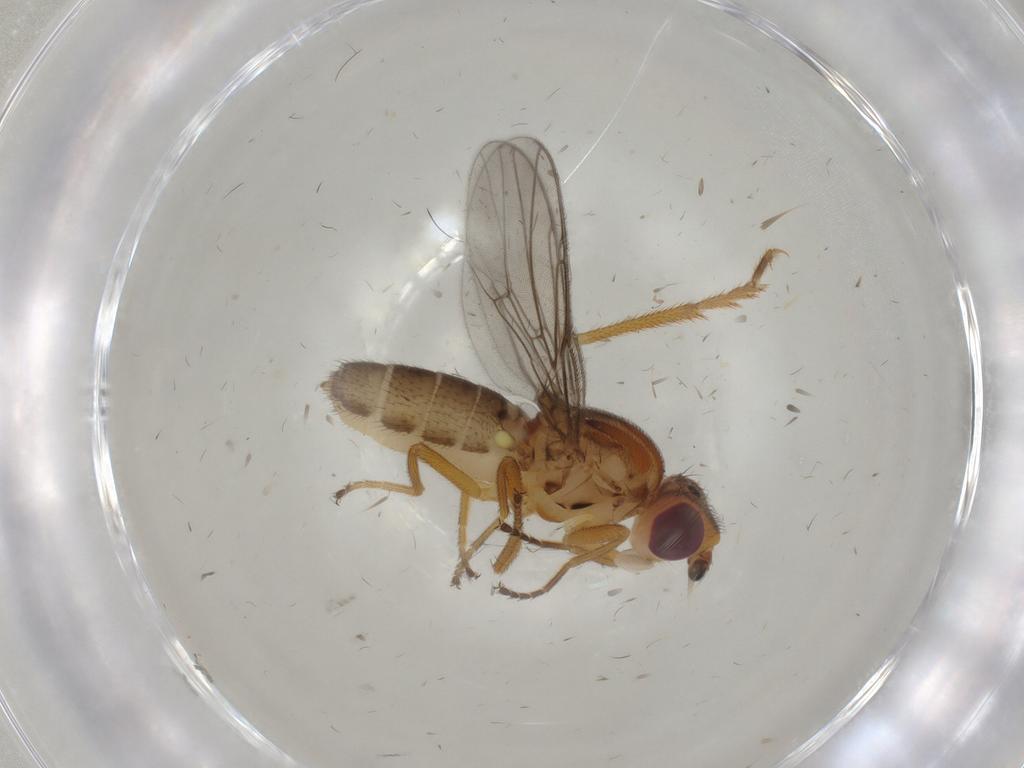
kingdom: Animalia
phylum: Arthropoda
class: Insecta
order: Diptera
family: Chloropidae
